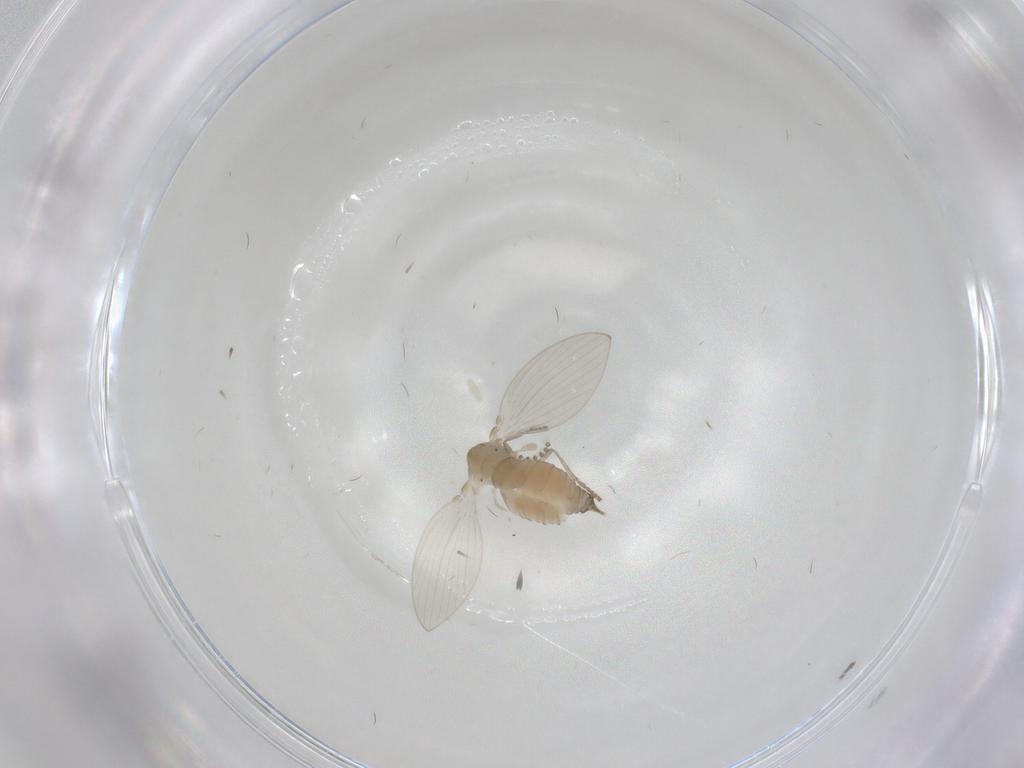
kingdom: Animalia
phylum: Arthropoda
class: Insecta
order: Diptera
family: Psychodidae
